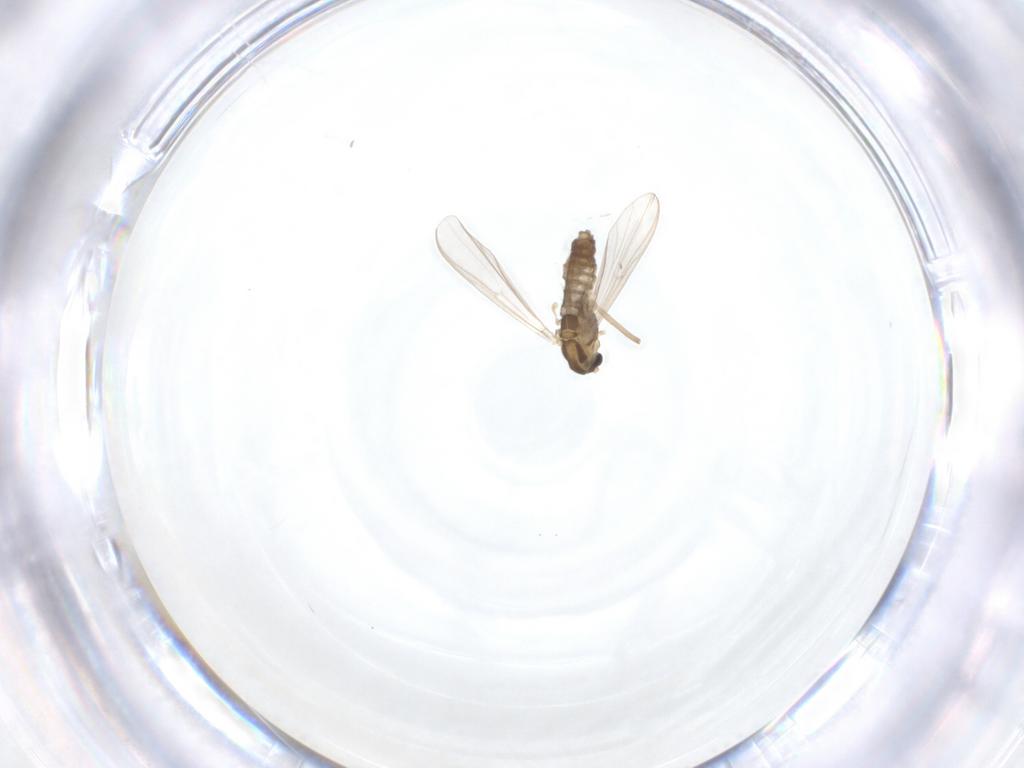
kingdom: Animalia
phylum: Arthropoda
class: Insecta
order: Diptera
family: Chironomidae
